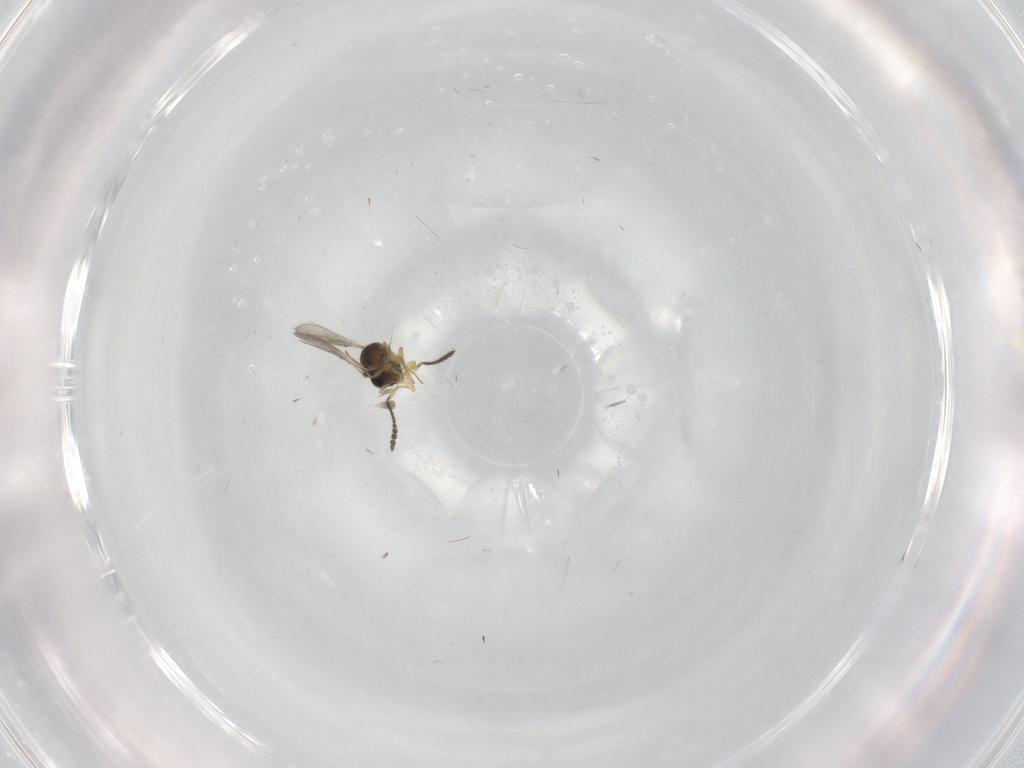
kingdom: Animalia
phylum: Arthropoda
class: Insecta
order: Hymenoptera
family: Scelionidae
